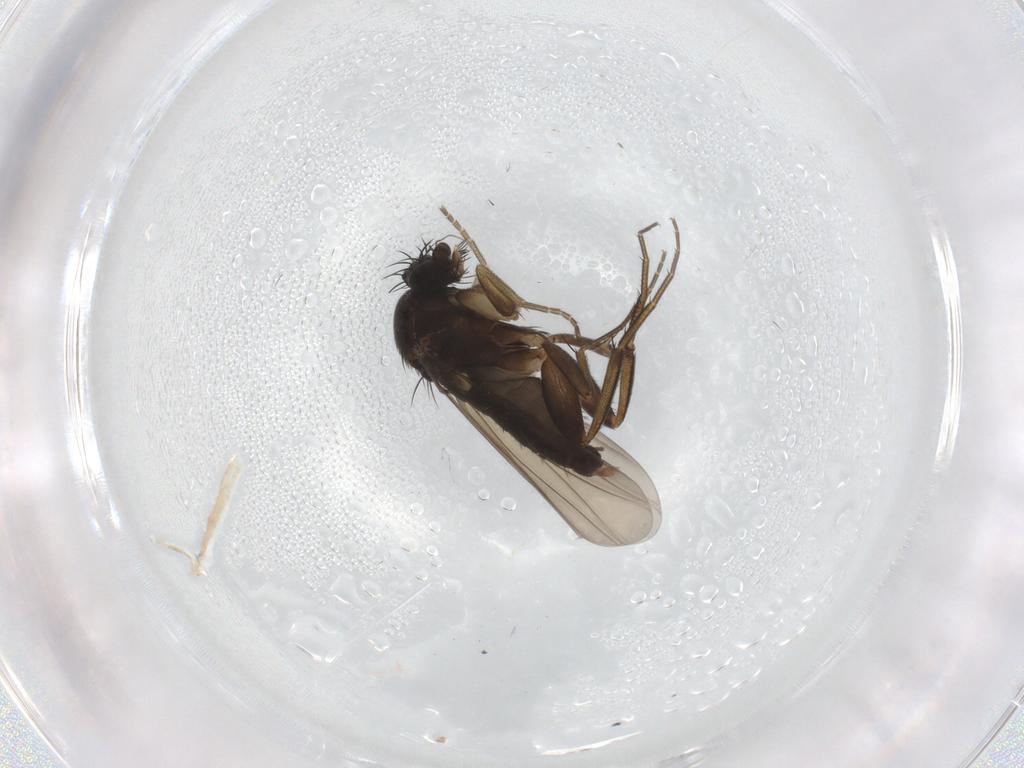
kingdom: Animalia
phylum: Arthropoda
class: Insecta
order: Diptera
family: Phoridae
